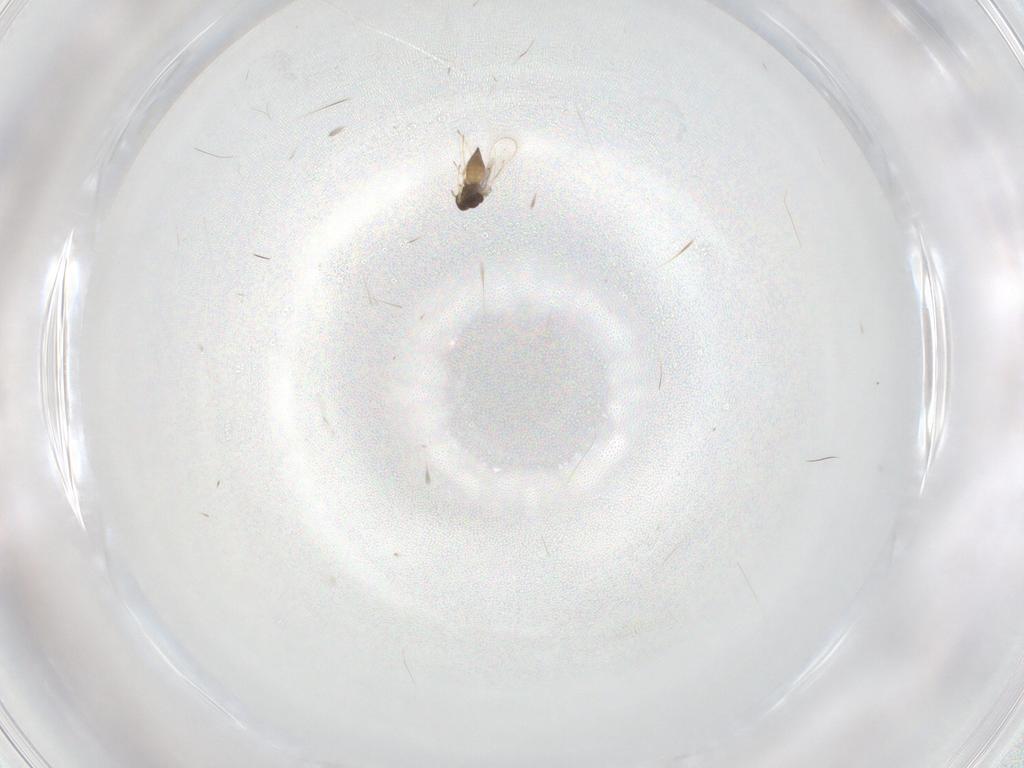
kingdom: Animalia
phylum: Arthropoda
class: Insecta
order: Hymenoptera
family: Eulophidae
